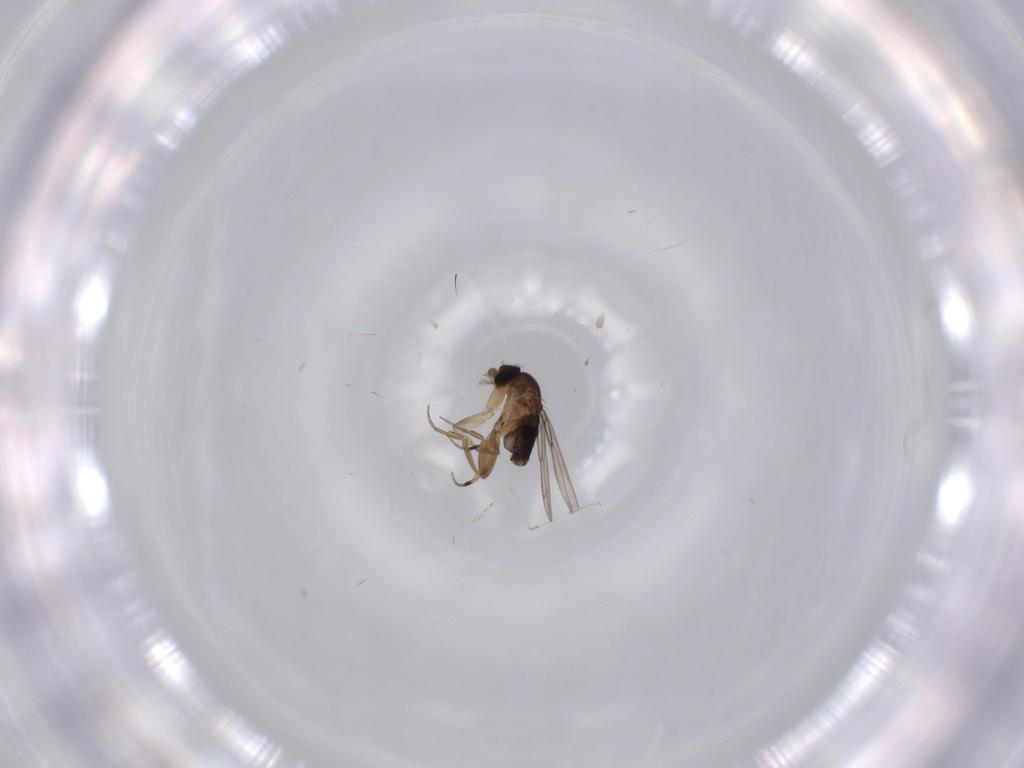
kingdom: Animalia
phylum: Arthropoda
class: Insecta
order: Diptera
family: Phoridae
